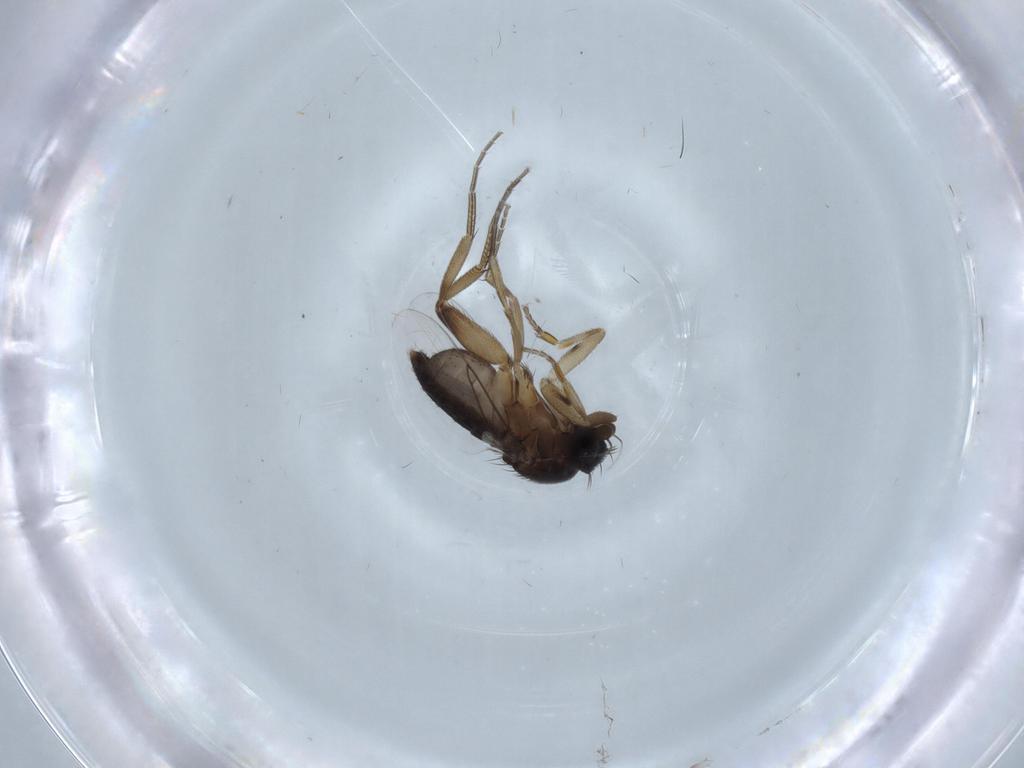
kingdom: Animalia
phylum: Arthropoda
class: Insecta
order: Diptera
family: Phoridae
